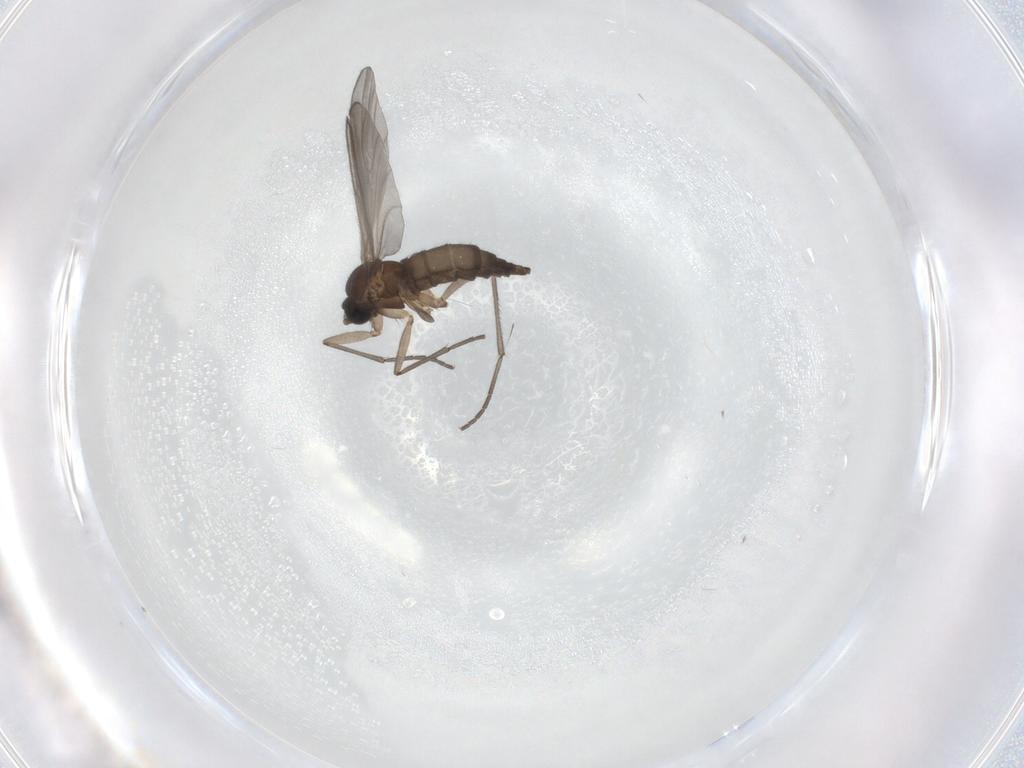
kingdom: Animalia
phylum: Arthropoda
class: Insecta
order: Diptera
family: Sciaridae
